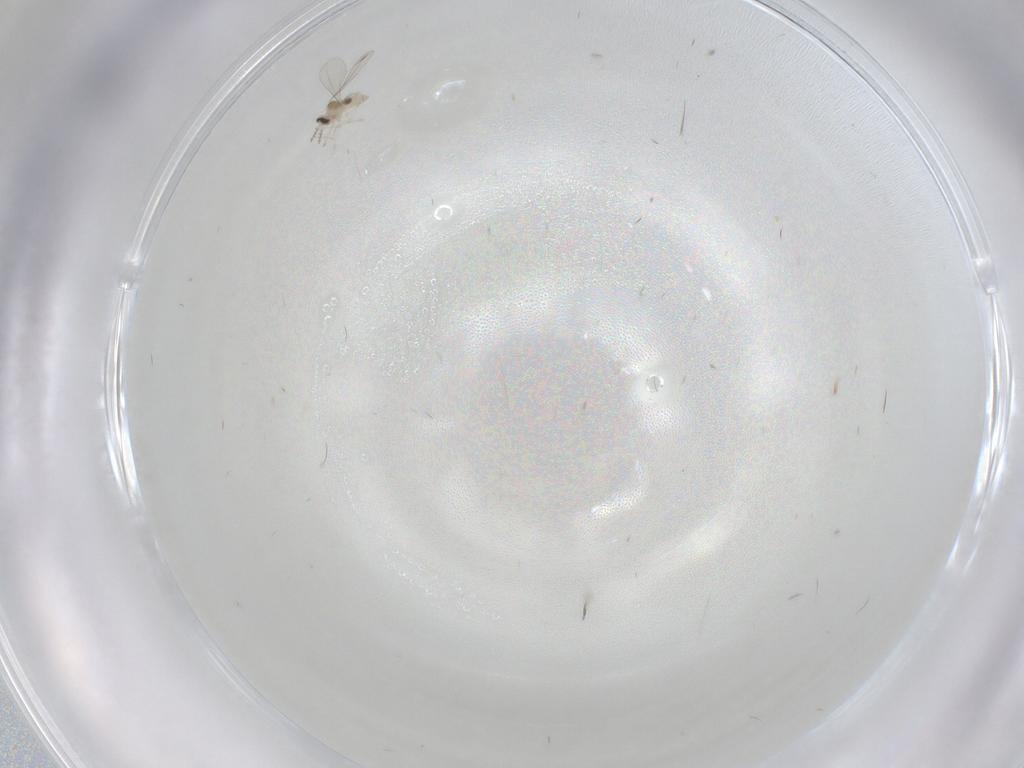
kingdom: Animalia
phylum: Arthropoda
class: Insecta
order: Diptera
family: Cecidomyiidae
